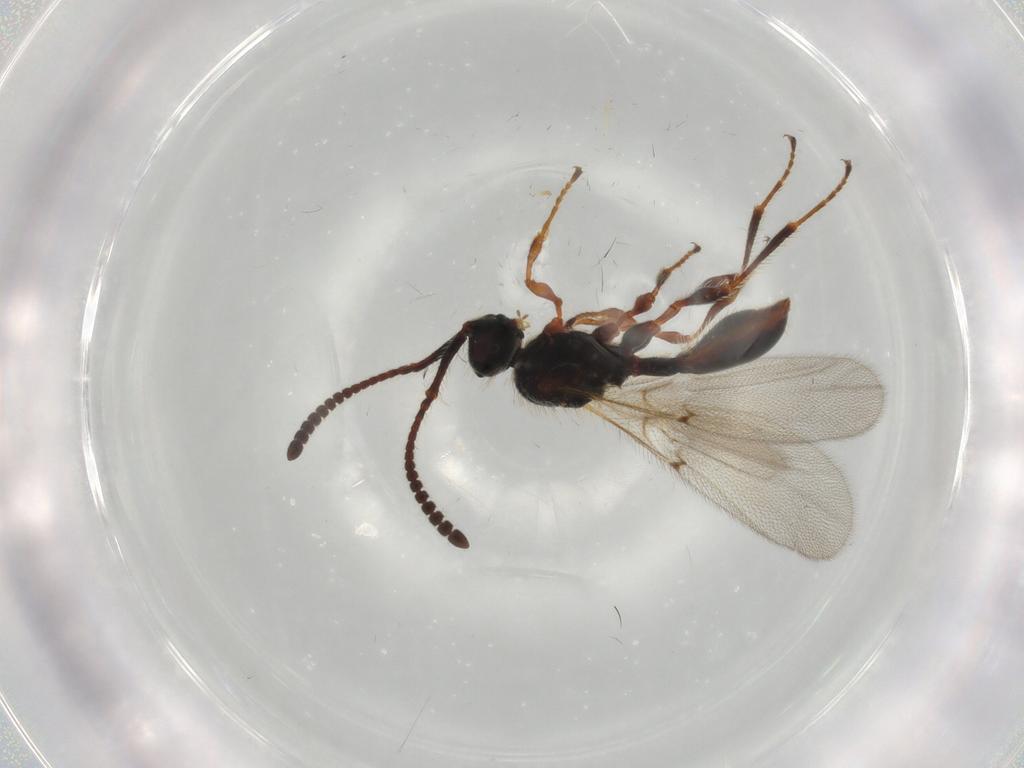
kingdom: Animalia
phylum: Arthropoda
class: Insecta
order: Hymenoptera
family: Diapriidae
